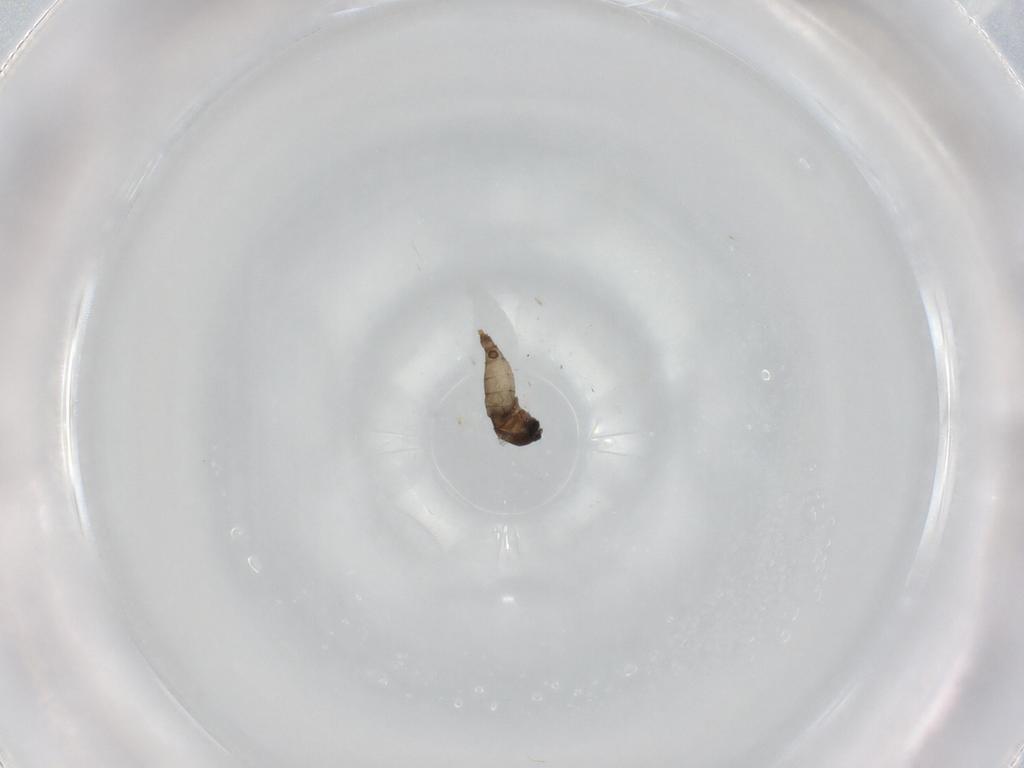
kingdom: Animalia
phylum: Arthropoda
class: Insecta
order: Diptera
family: Cecidomyiidae
